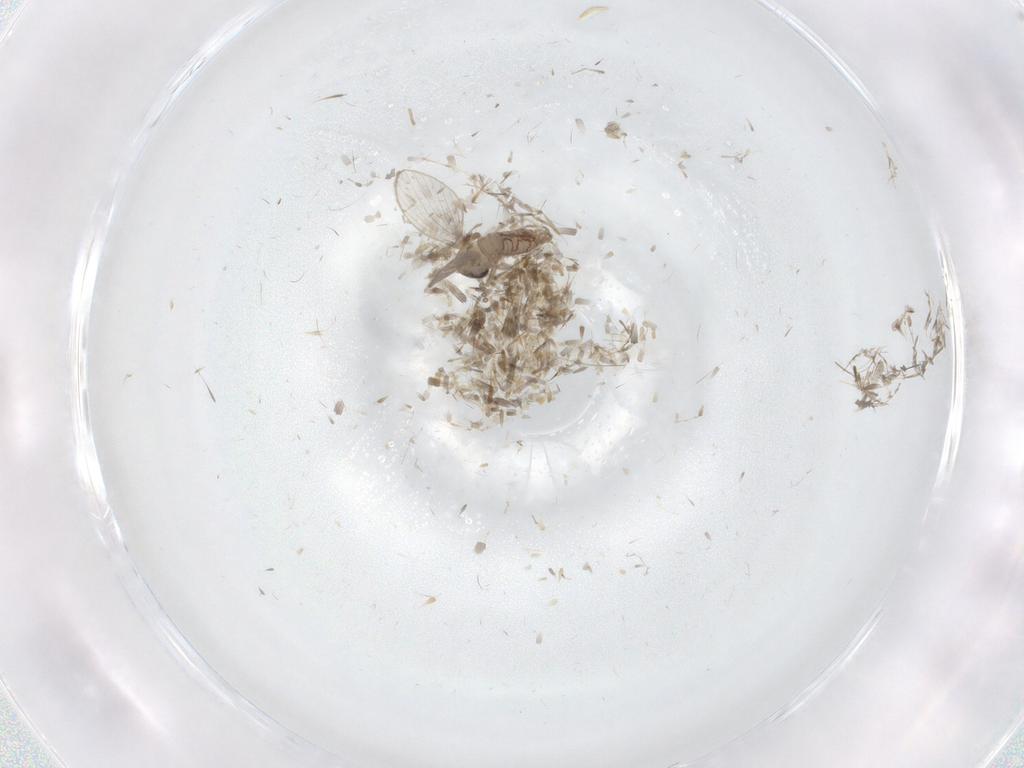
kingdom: Animalia
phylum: Arthropoda
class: Insecta
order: Diptera
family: Psychodidae
